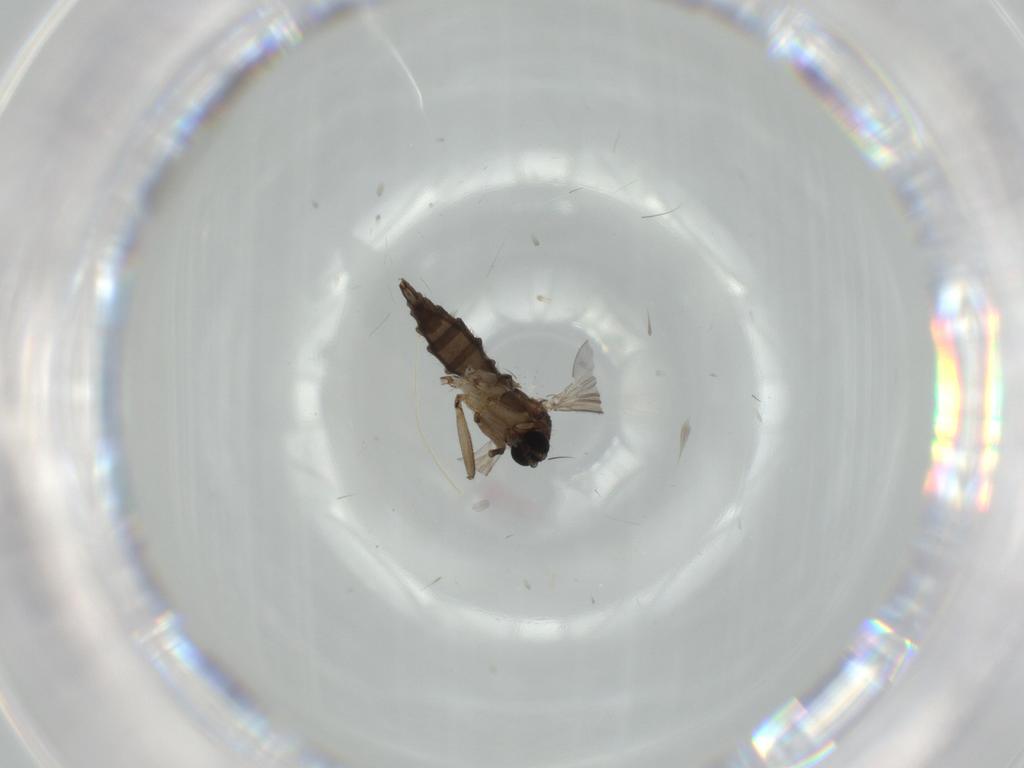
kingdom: Animalia
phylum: Arthropoda
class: Insecta
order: Diptera
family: Sciaridae
